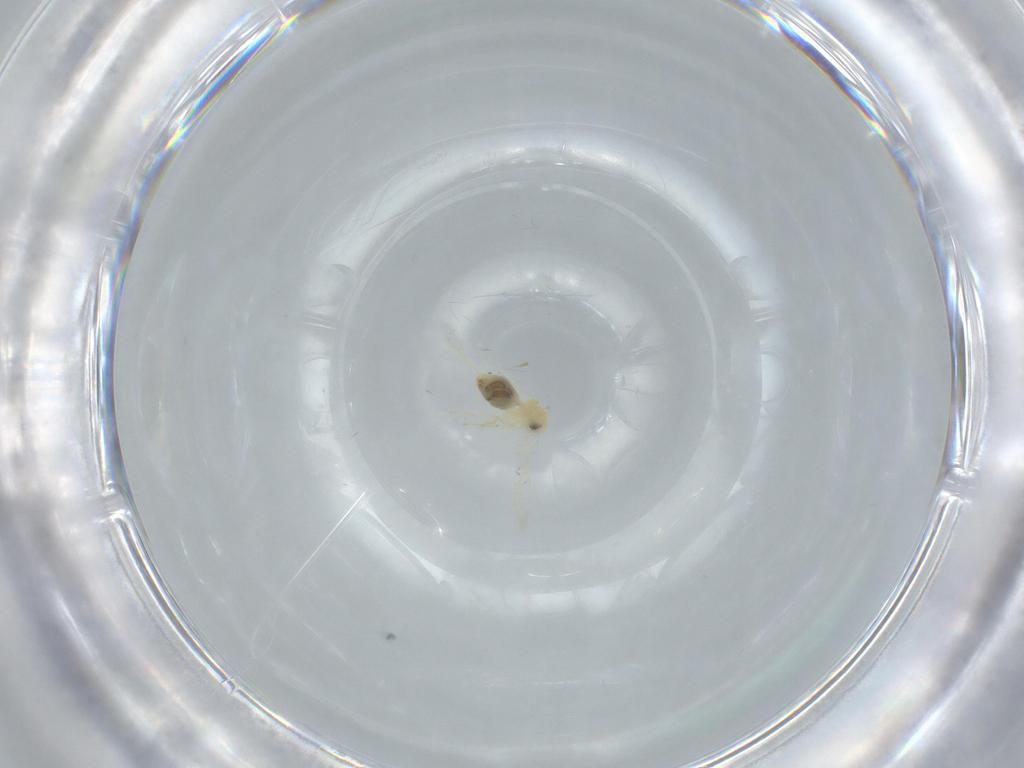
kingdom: Animalia
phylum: Arthropoda
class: Insecta
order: Hemiptera
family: Aleyrodidae
